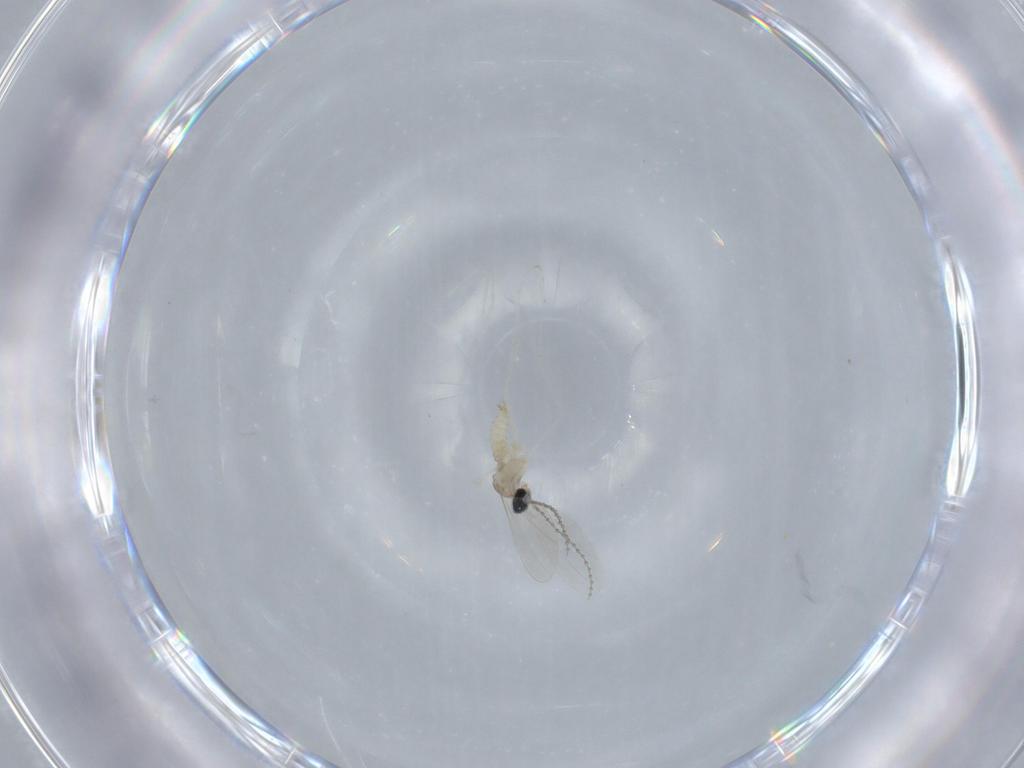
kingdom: Animalia
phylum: Arthropoda
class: Insecta
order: Diptera
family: Cecidomyiidae
